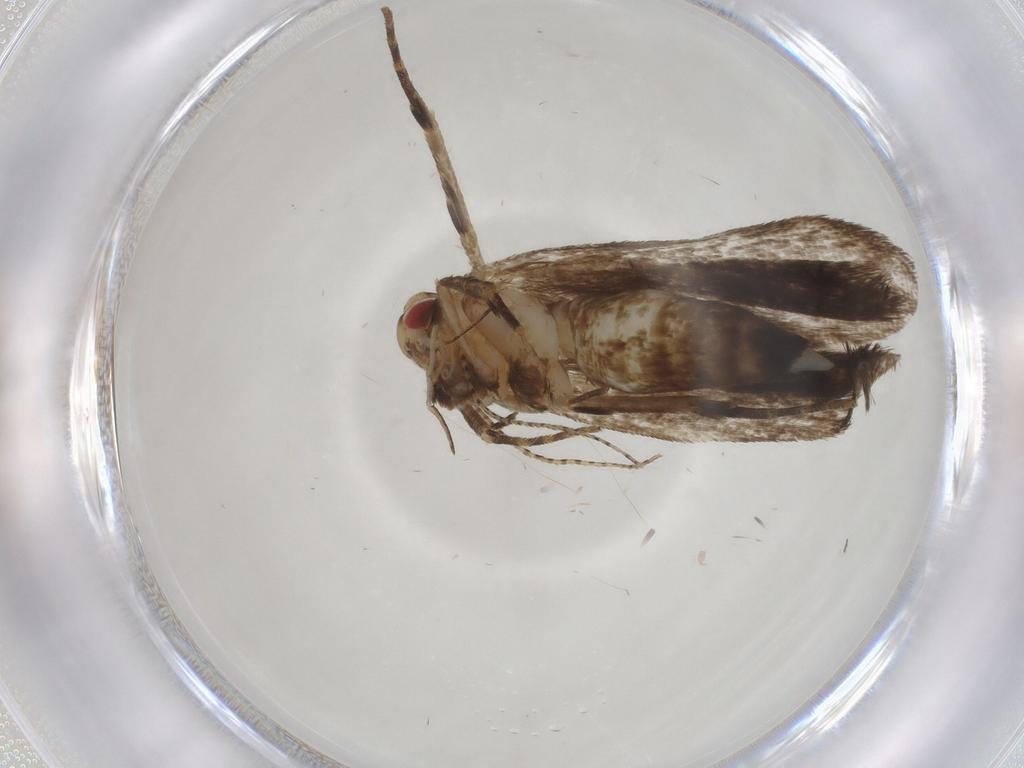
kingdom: Animalia
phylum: Arthropoda
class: Insecta
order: Lepidoptera
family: Crambidae
